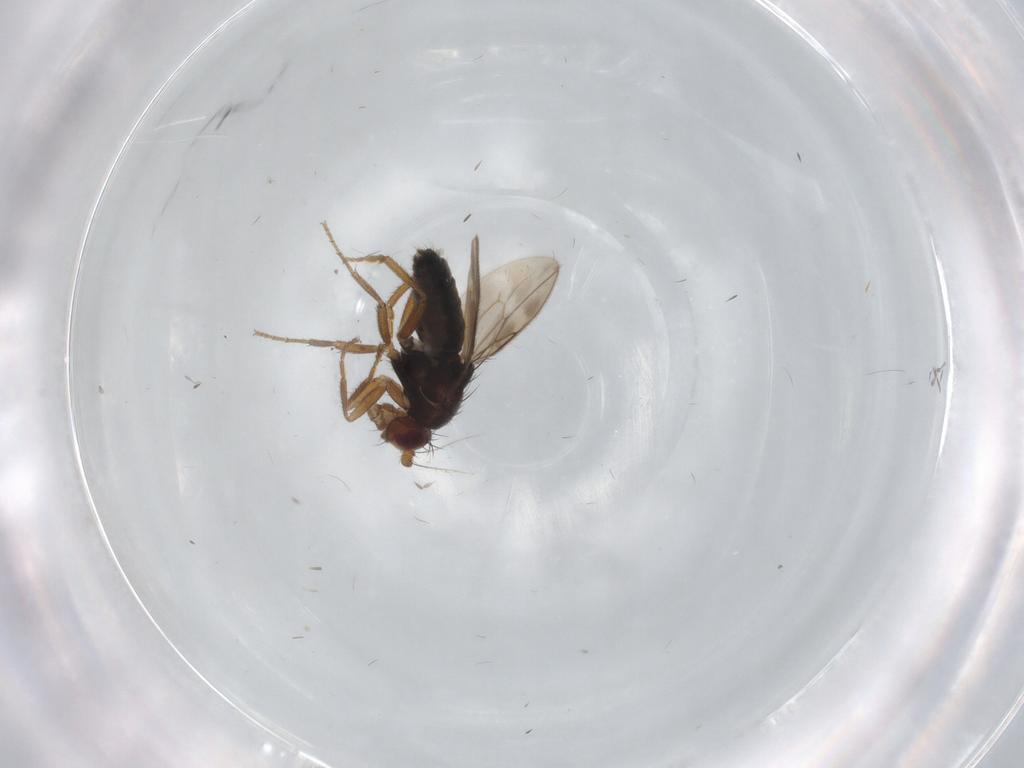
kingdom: Animalia
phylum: Arthropoda
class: Insecta
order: Diptera
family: Sphaeroceridae
